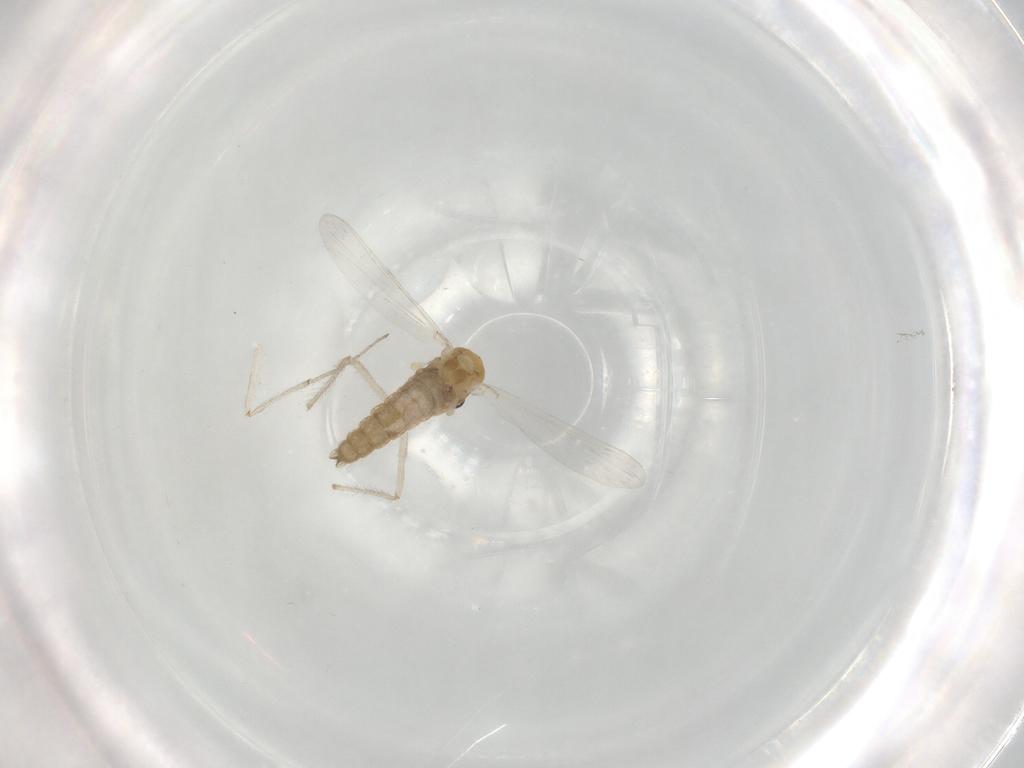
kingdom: Animalia
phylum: Arthropoda
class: Insecta
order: Diptera
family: Chironomidae
